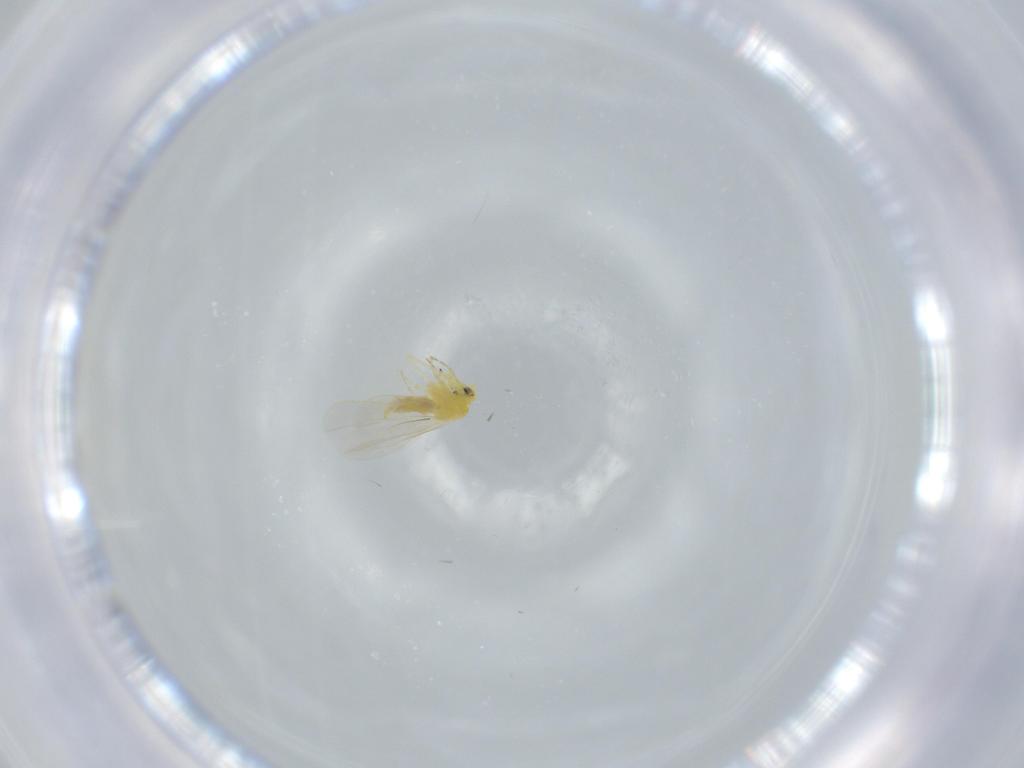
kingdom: Animalia
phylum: Arthropoda
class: Insecta
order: Hemiptera
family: Aleyrodidae
